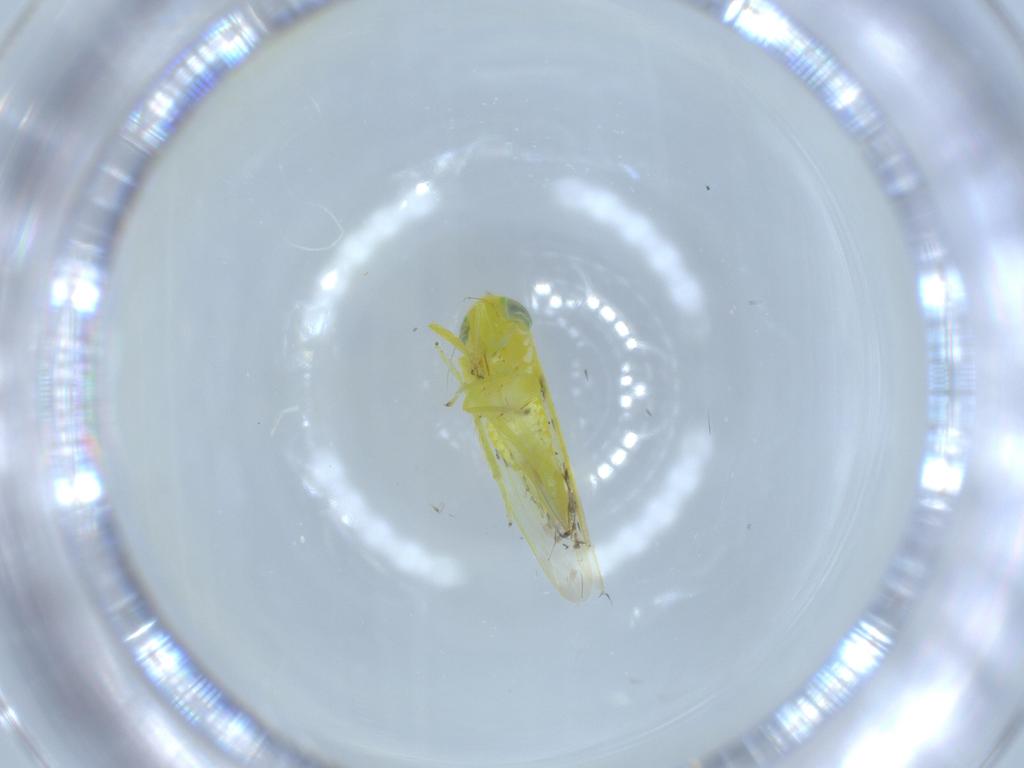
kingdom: Animalia
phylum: Arthropoda
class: Insecta
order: Hemiptera
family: Cicadellidae
